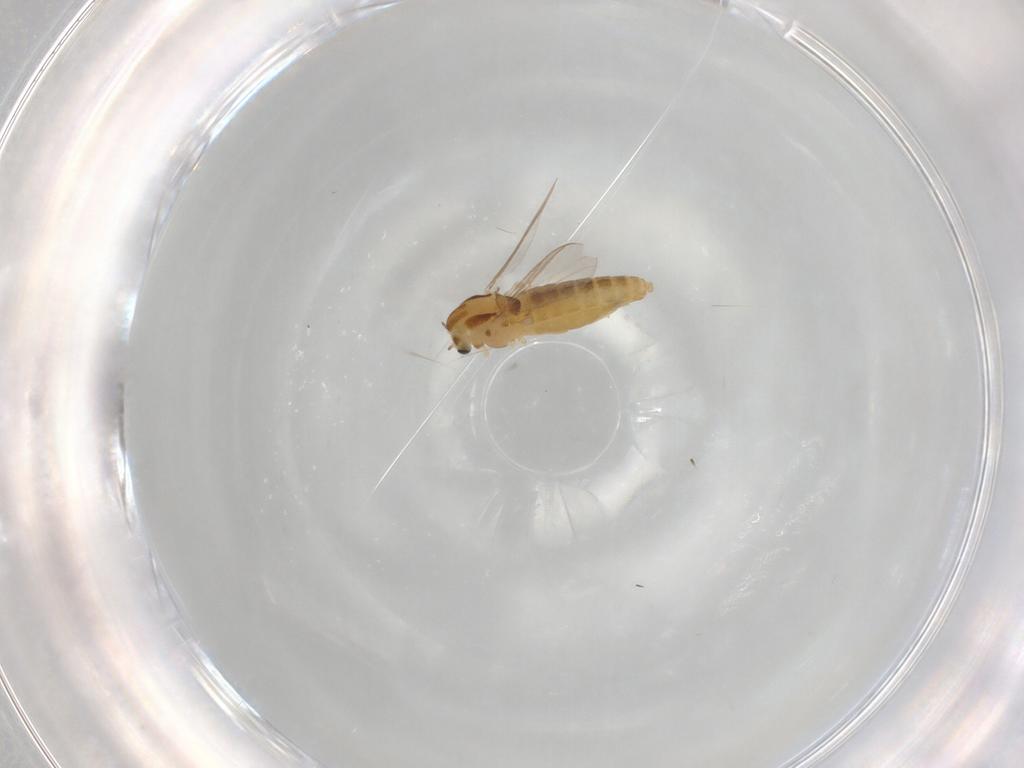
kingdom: Animalia
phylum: Arthropoda
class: Insecta
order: Diptera
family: Chironomidae
